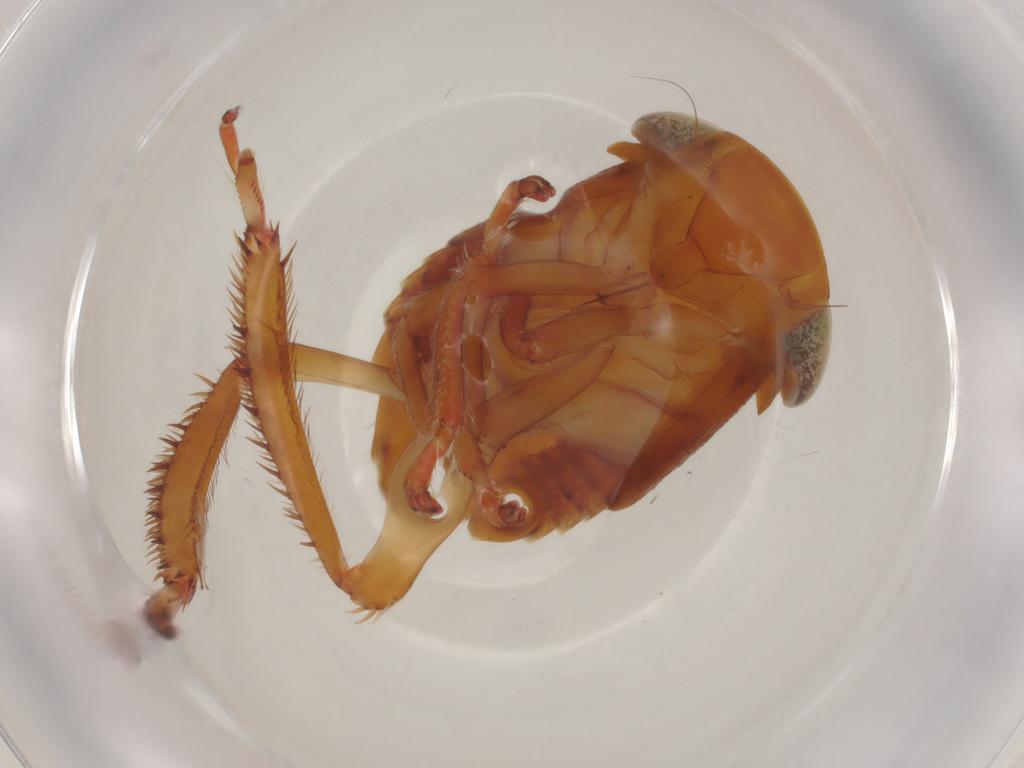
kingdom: Animalia
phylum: Arthropoda
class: Insecta
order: Hemiptera
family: Cicadellidae
